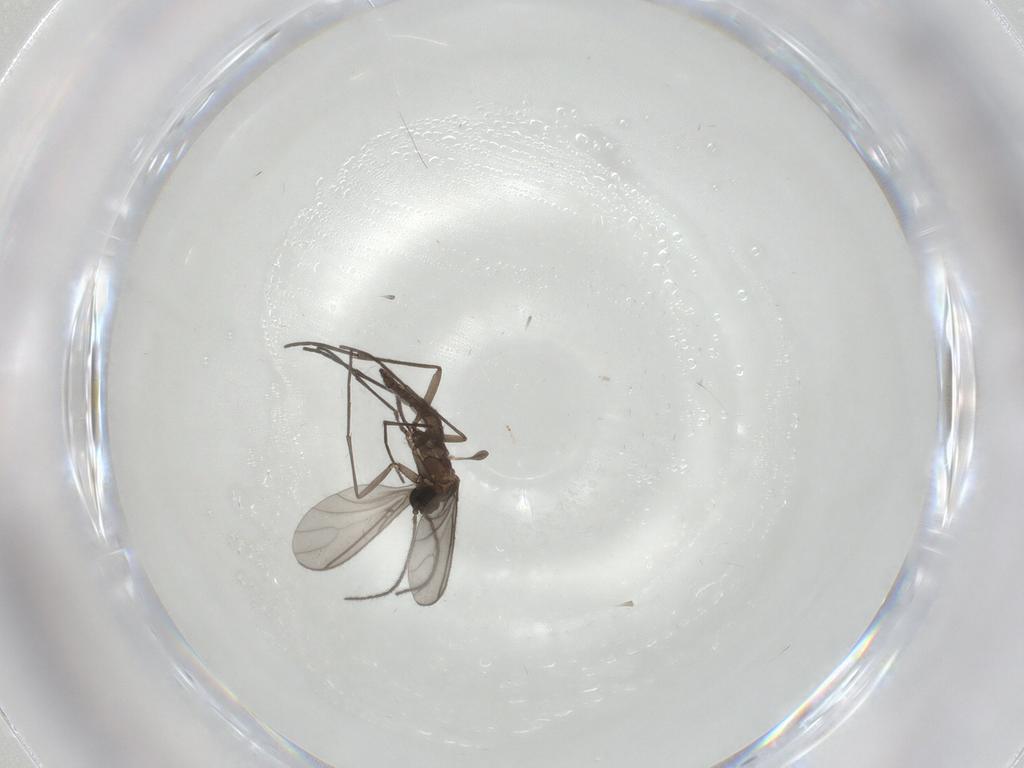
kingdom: Animalia
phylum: Arthropoda
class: Insecta
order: Diptera
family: Sciaridae
